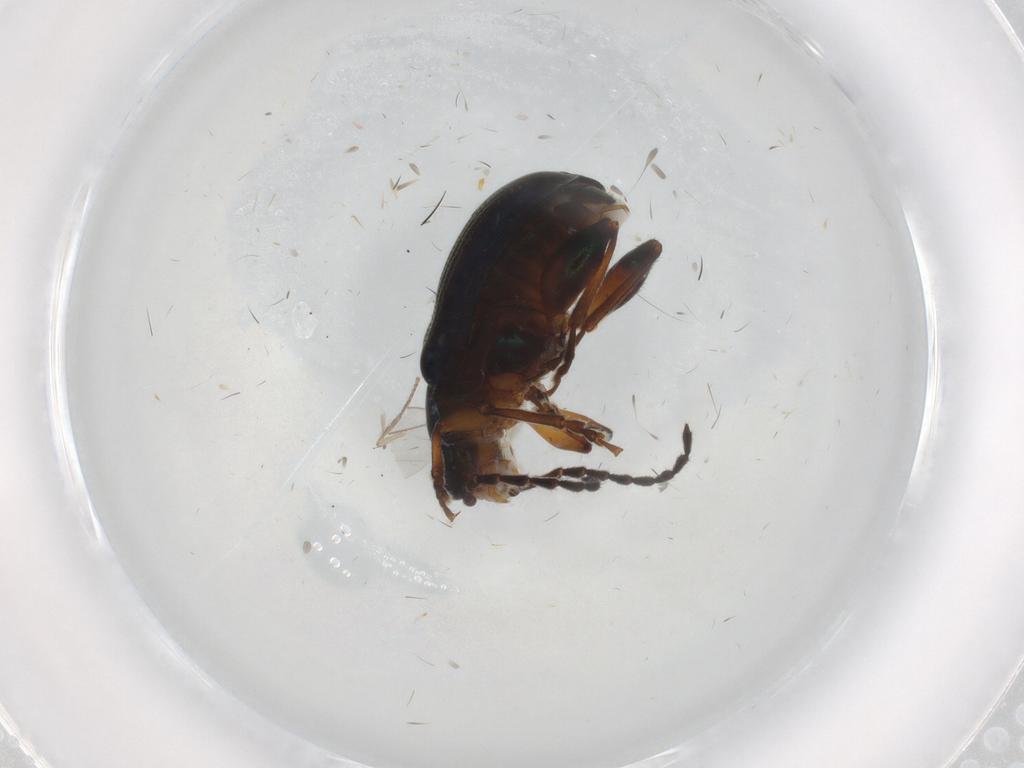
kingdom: Animalia
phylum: Arthropoda
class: Insecta
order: Coleoptera
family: Chrysomelidae
